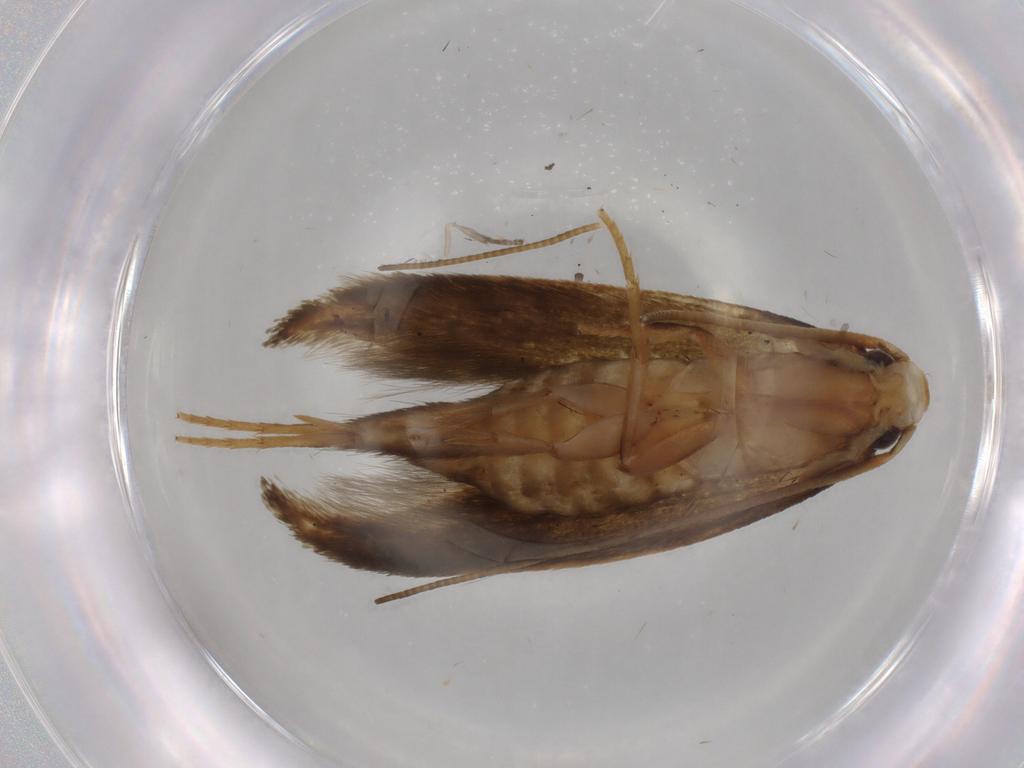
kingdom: Animalia
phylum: Arthropoda
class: Insecta
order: Lepidoptera
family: Tineidae
